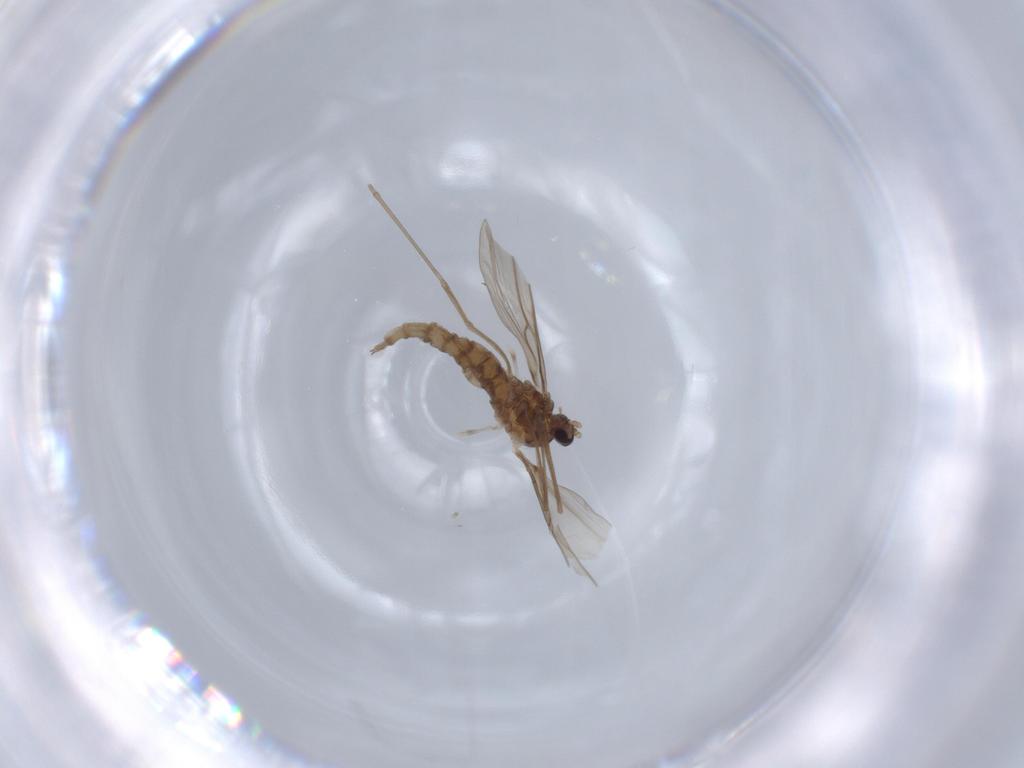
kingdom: Animalia
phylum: Arthropoda
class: Insecta
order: Diptera
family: Cecidomyiidae
